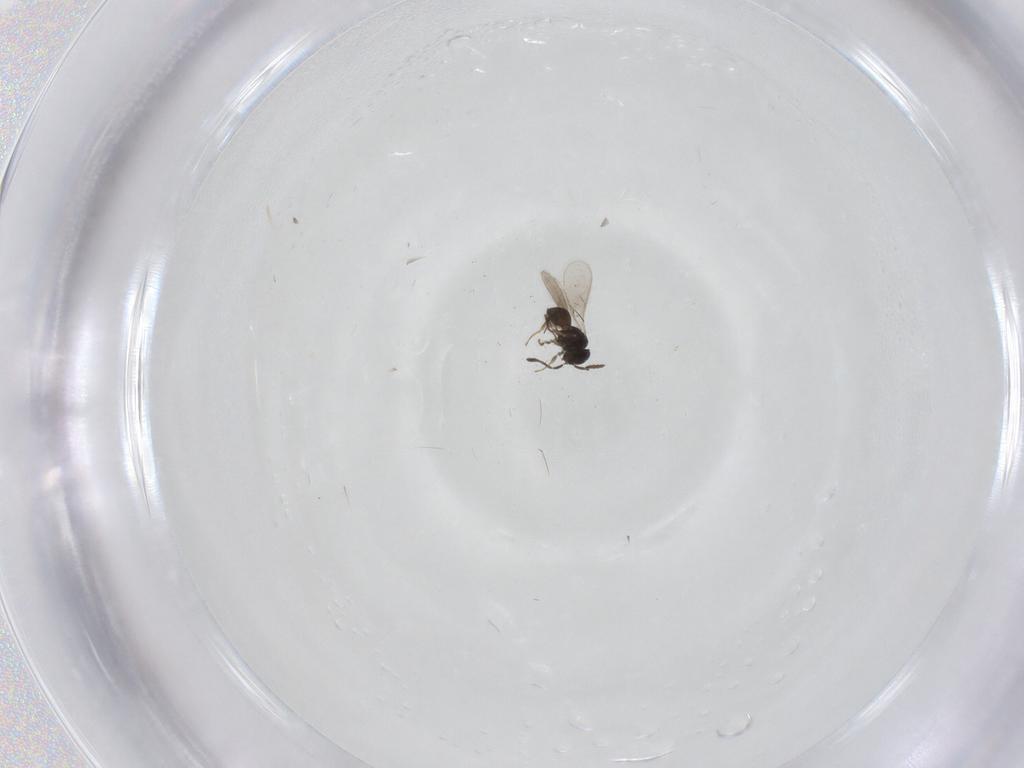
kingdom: Animalia
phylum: Arthropoda
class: Insecta
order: Hymenoptera
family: Scelionidae
